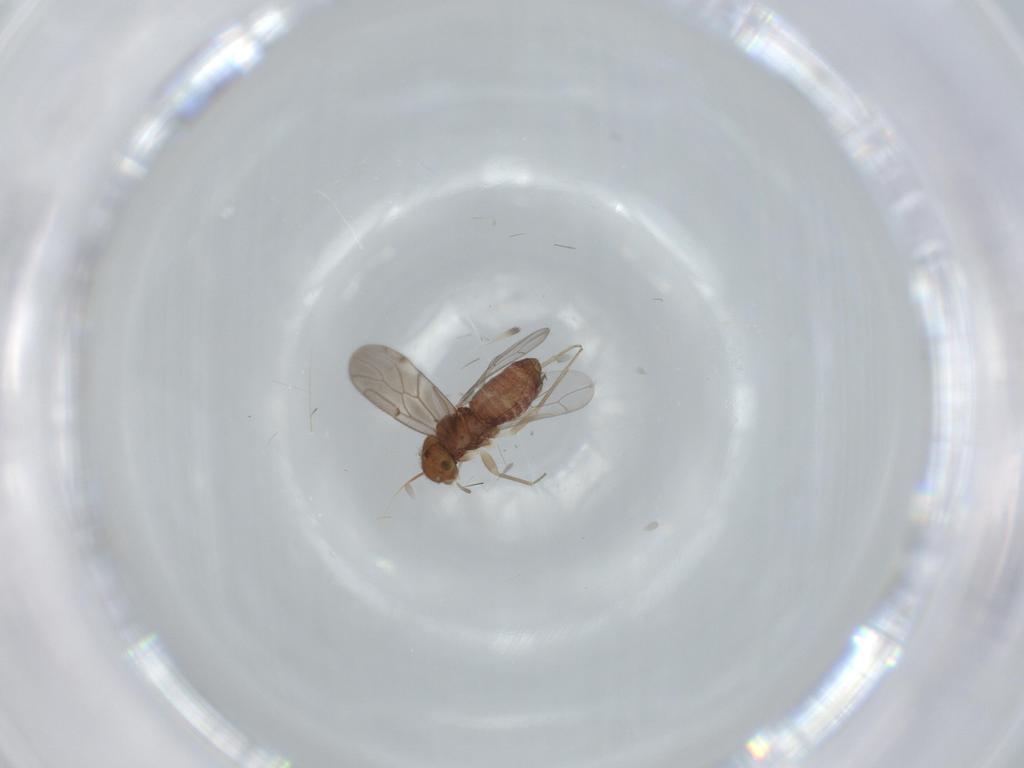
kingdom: Animalia
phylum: Arthropoda
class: Insecta
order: Psocodea
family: Ectopsocidae
